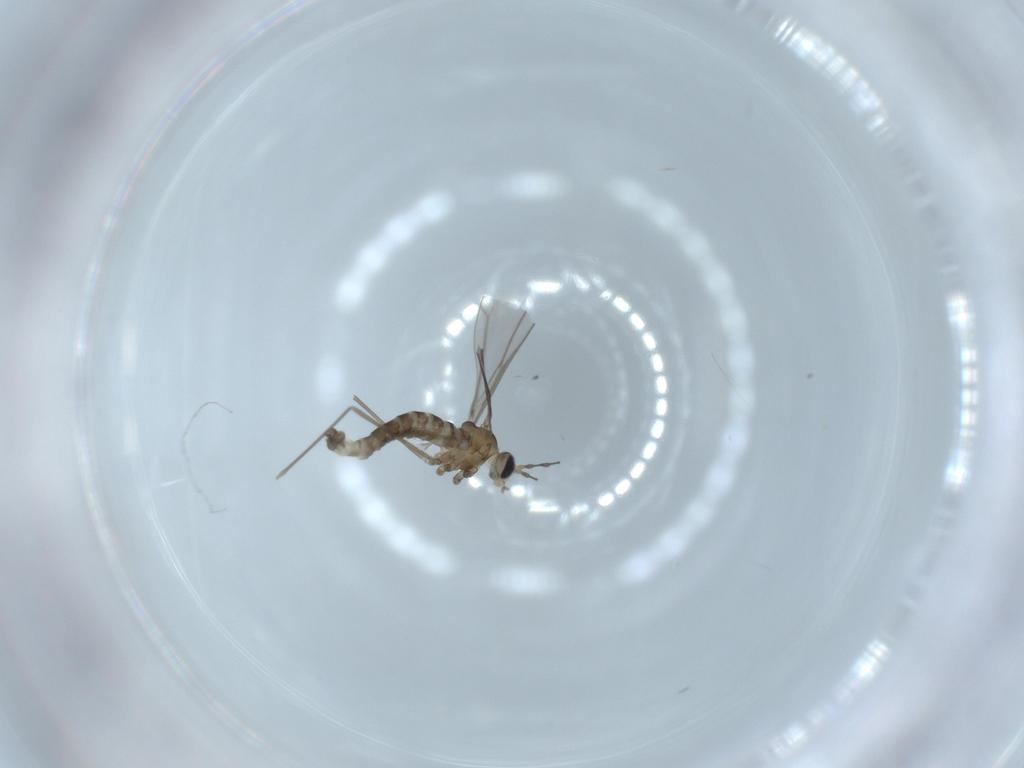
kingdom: Animalia
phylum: Arthropoda
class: Insecta
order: Diptera
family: Cecidomyiidae
